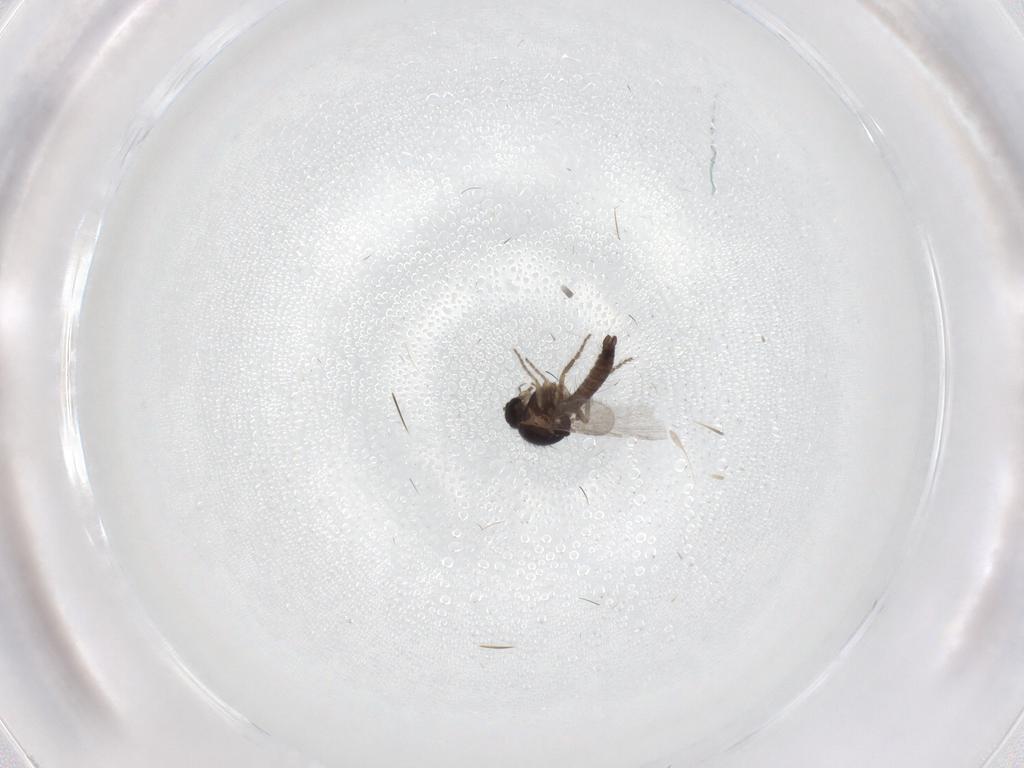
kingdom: Animalia
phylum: Arthropoda
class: Insecta
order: Diptera
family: Ceratopogonidae
